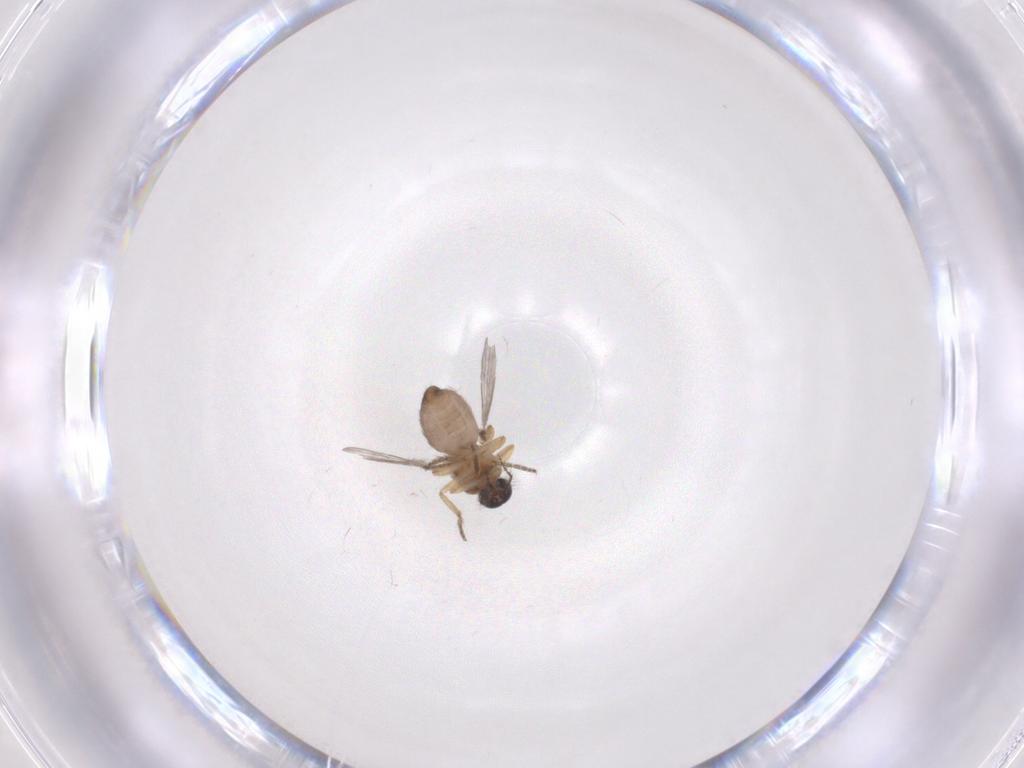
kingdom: Animalia
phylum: Arthropoda
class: Insecta
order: Diptera
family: Ceratopogonidae
